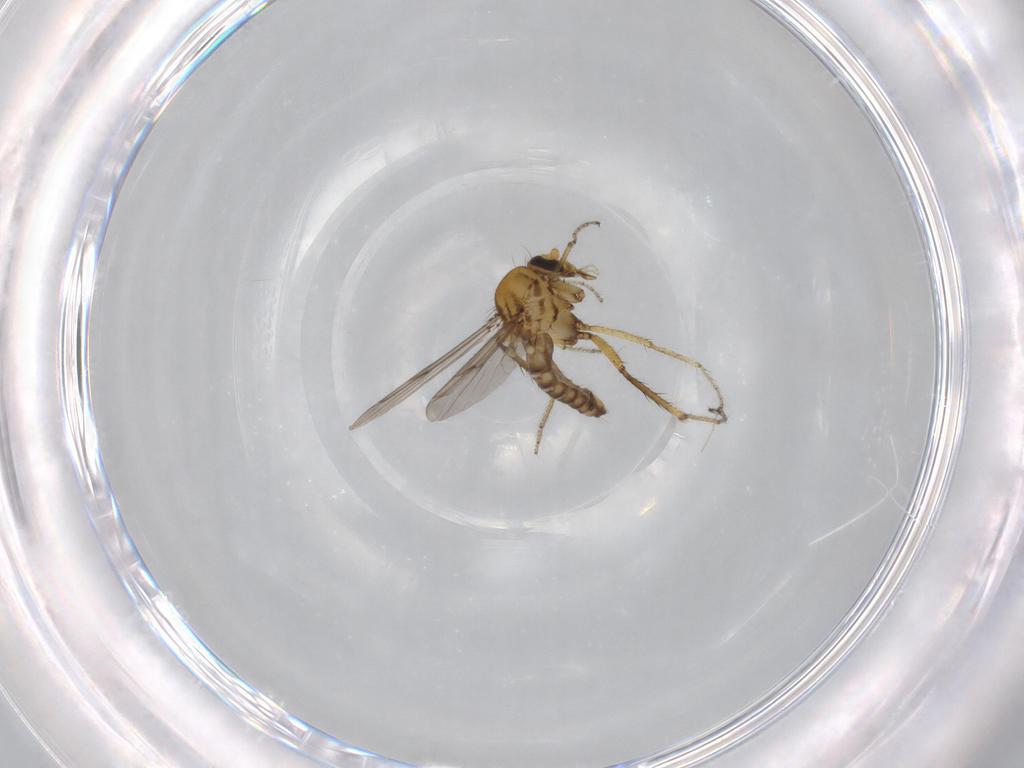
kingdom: Animalia
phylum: Arthropoda
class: Insecta
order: Diptera
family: Ceratopogonidae
